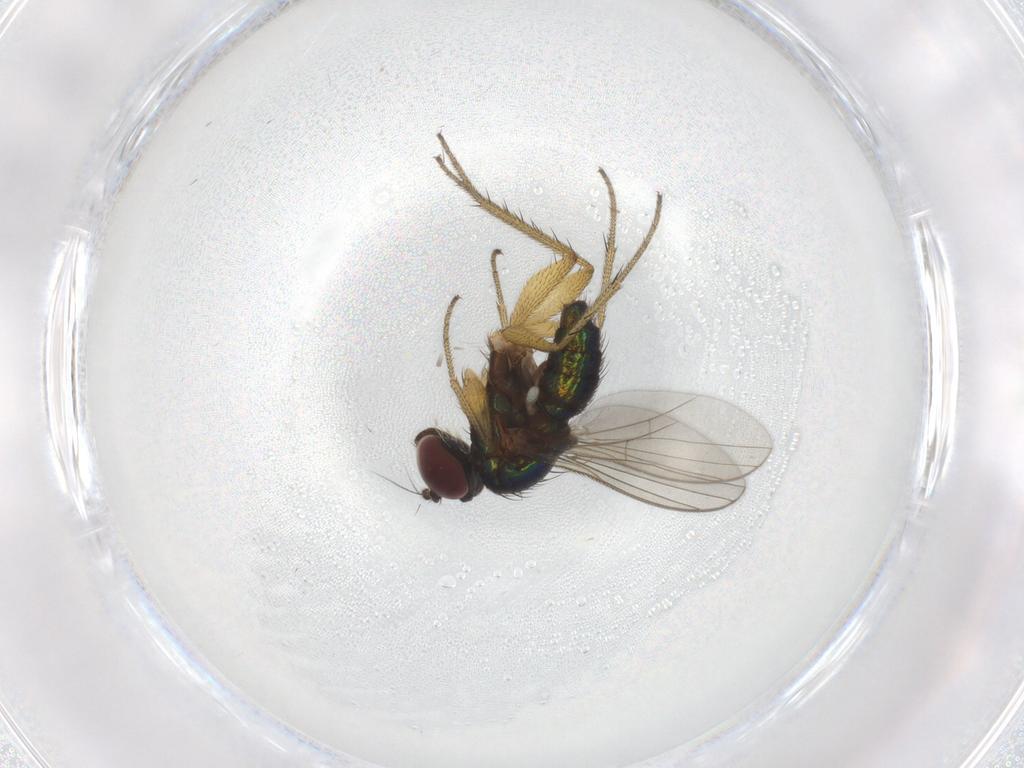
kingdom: Animalia
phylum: Arthropoda
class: Insecta
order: Diptera
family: Dolichopodidae
